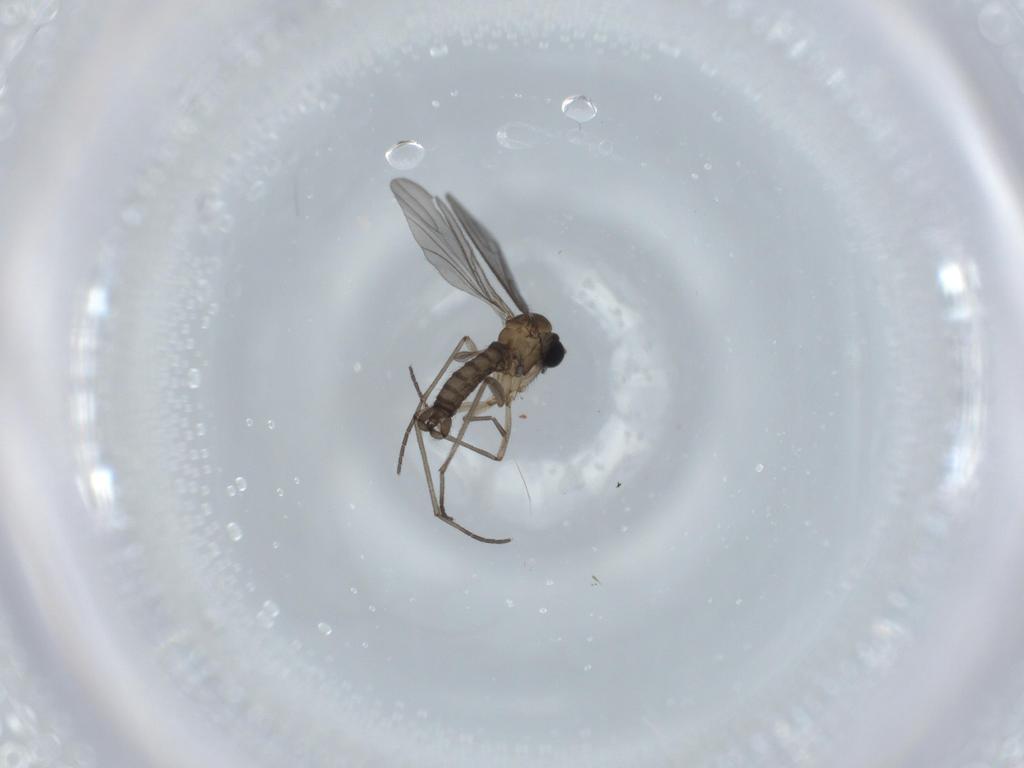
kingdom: Animalia
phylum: Arthropoda
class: Insecta
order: Diptera
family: Sciaridae
